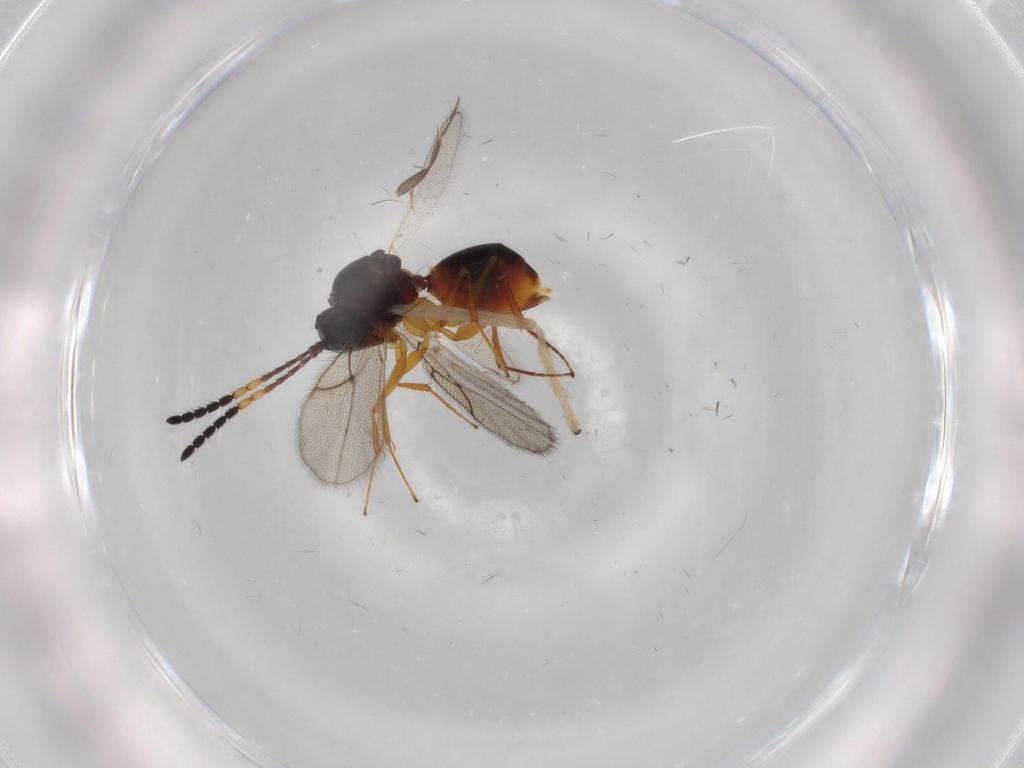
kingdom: Animalia
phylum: Arthropoda
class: Insecta
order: Hymenoptera
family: Figitidae
